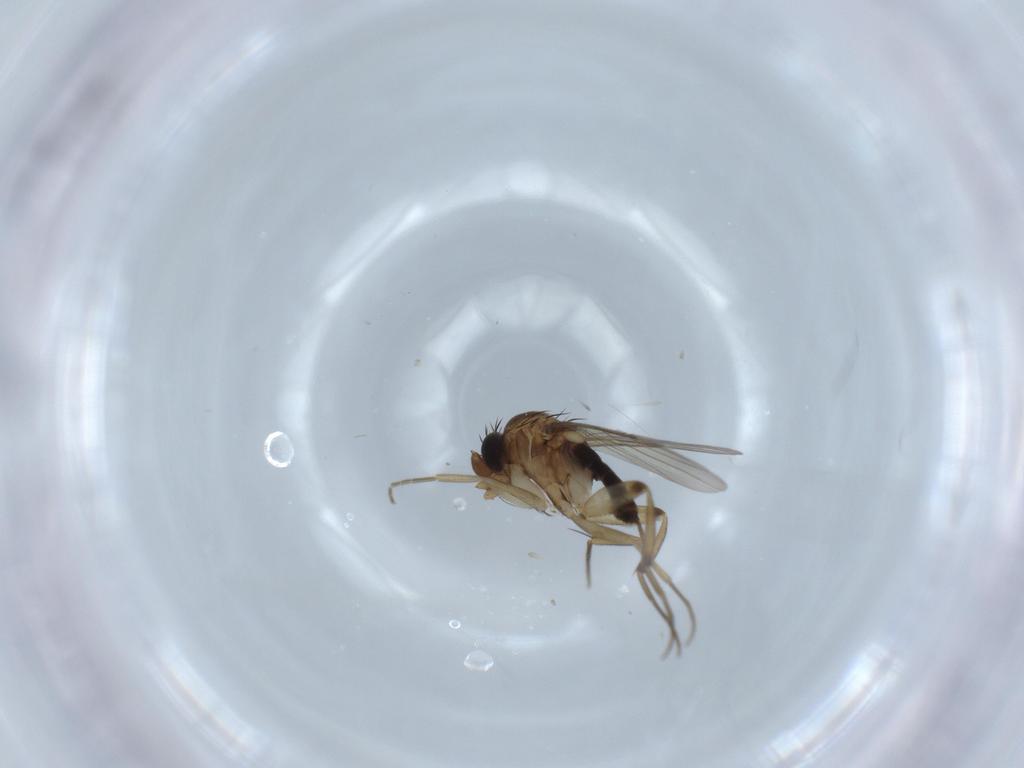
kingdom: Animalia
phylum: Arthropoda
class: Insecta
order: Diptera
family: Phoridae
